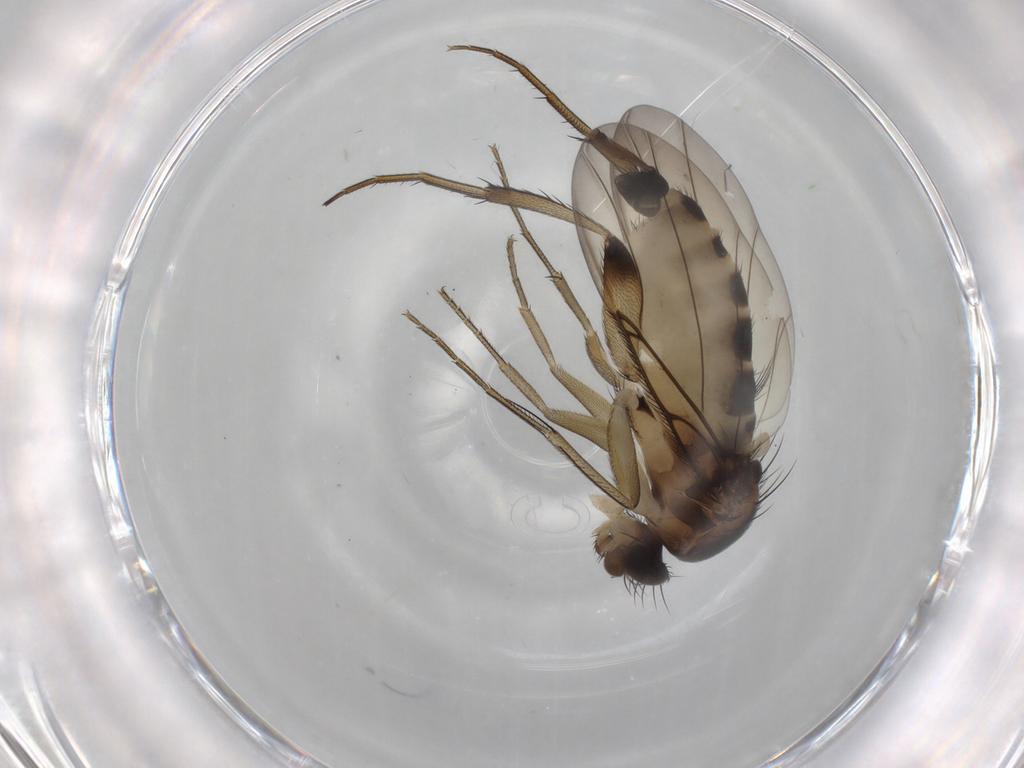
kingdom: Animalia
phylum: Arthropoda
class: Insecta
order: Diptera
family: Phoridae
